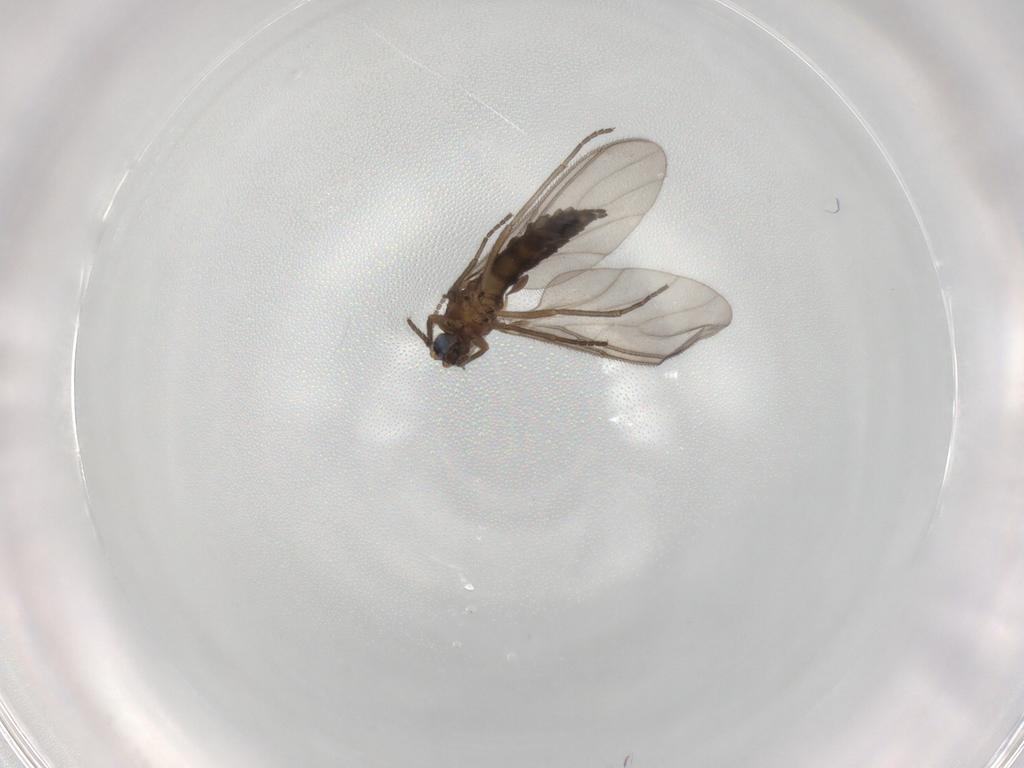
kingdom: Animalia
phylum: Arthropoda
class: Insecta
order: Diptera
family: Sciaridae
